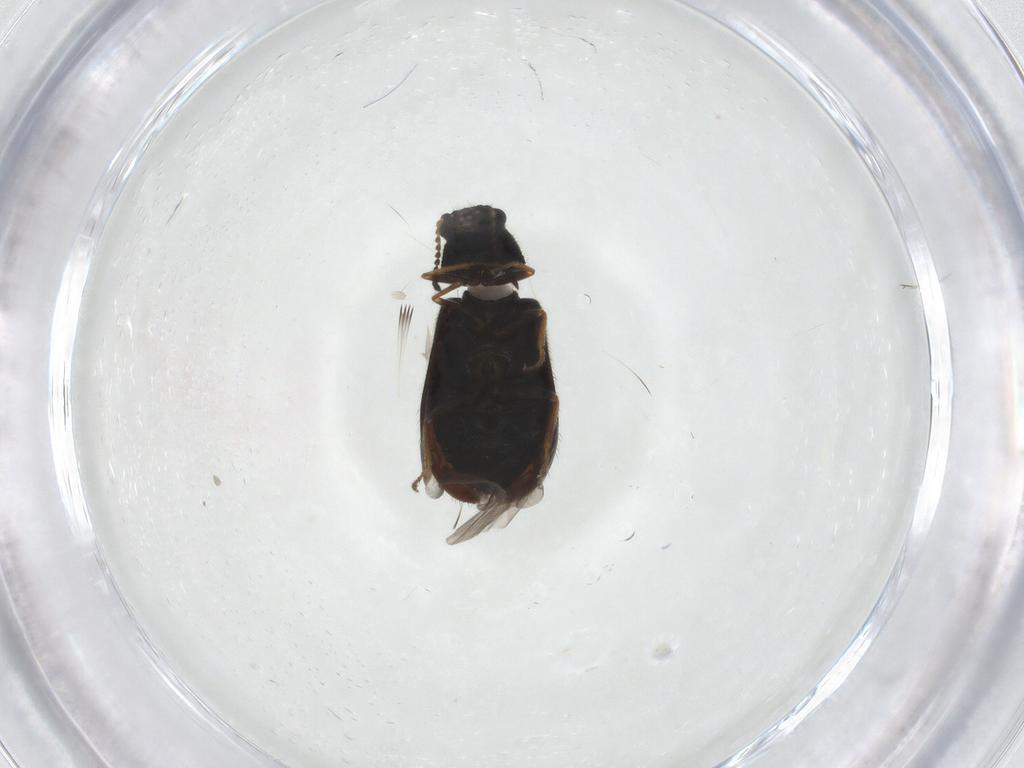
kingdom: Animalia
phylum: Arthropoda
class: Insecta
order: Coleoptera
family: Melyridae
